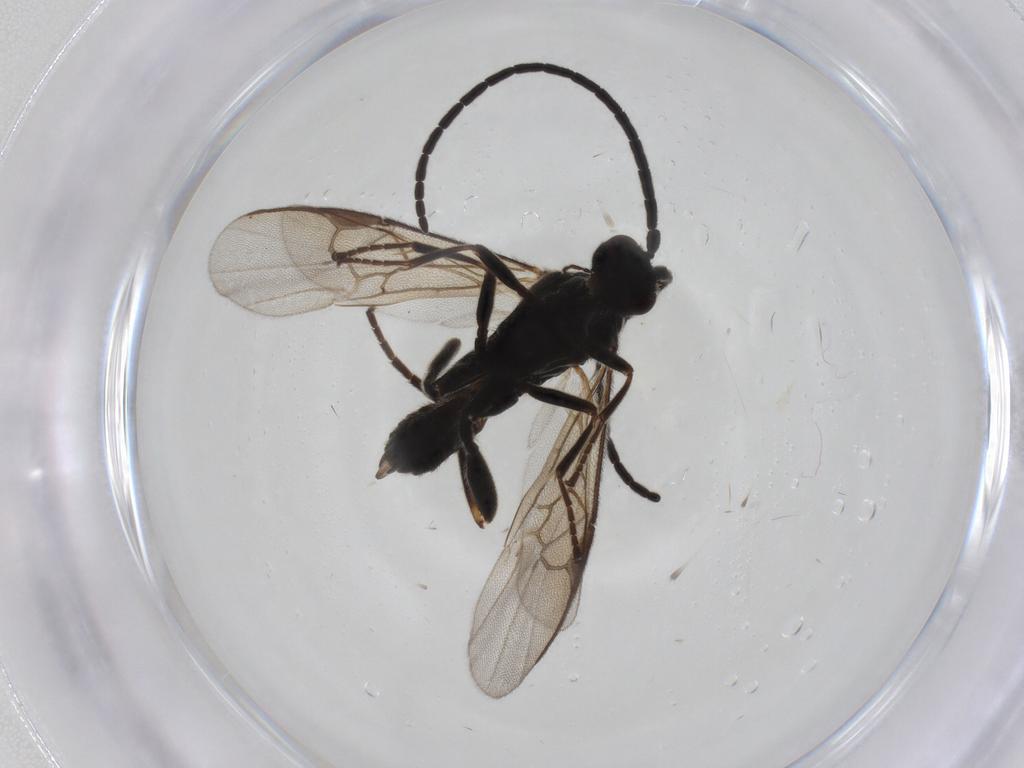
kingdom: Animalia
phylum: Arthropoda
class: Insecta
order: Hymenoptera
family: Braconidae
